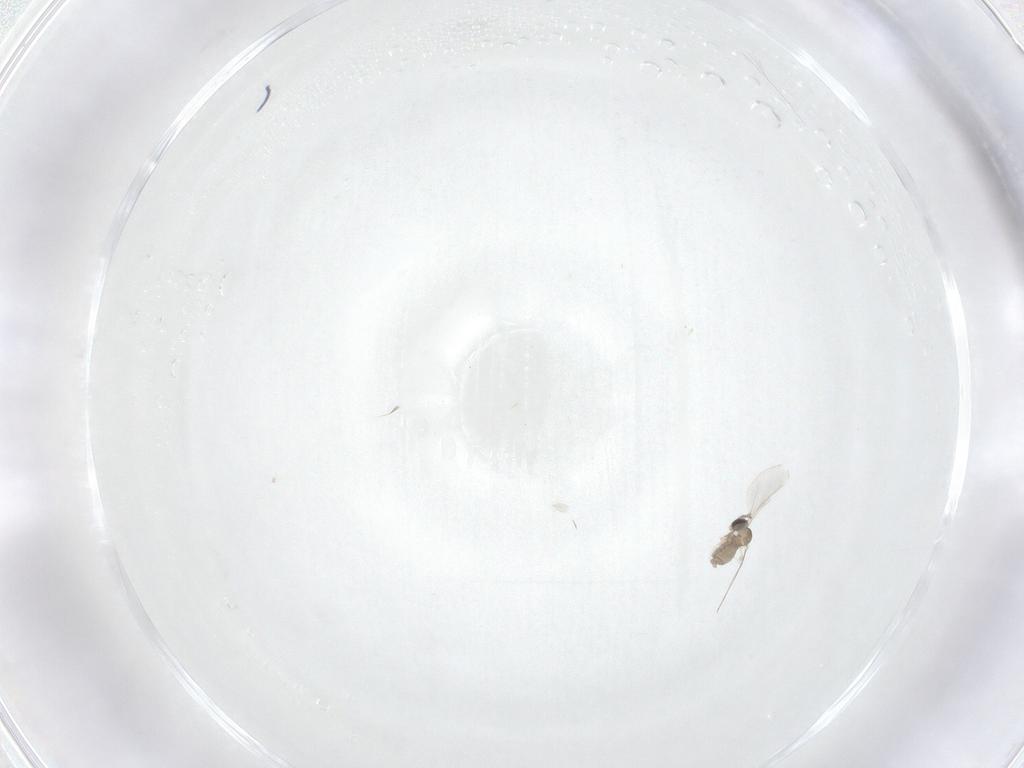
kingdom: Animalia
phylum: Arthropoda
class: Insecta
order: Diptera
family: Cecidomyiidae
